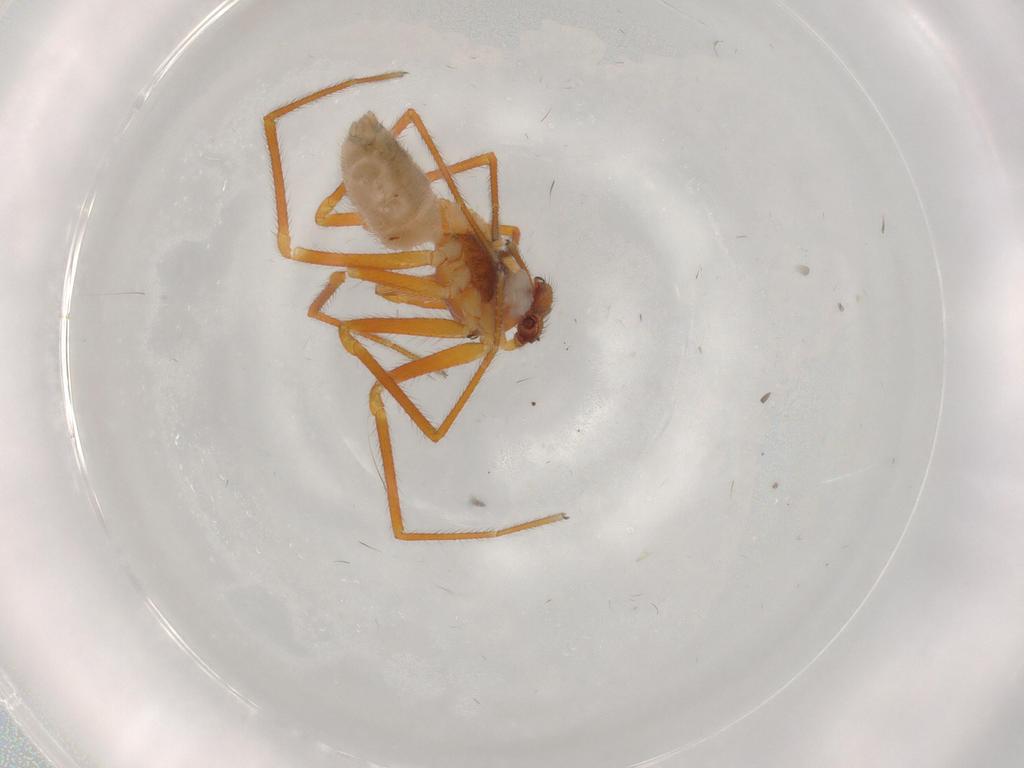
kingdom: Animalia
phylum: Arthropoda
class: Arachnida
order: Araneae
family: Linyphiidae
